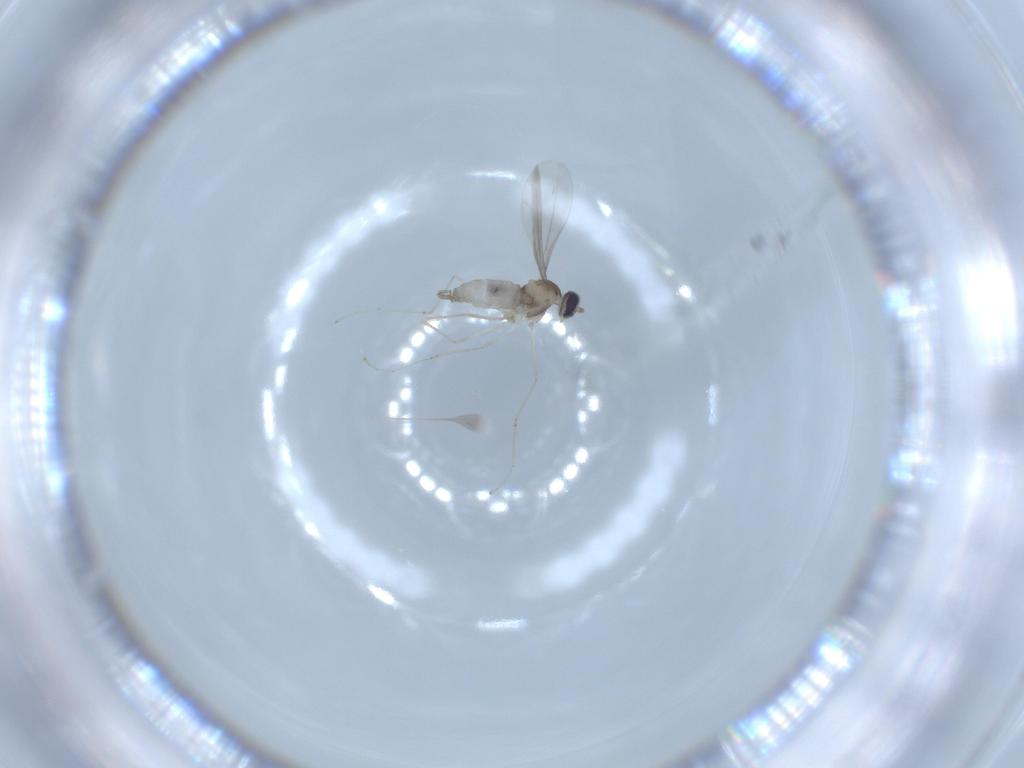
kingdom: Animalia
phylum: Arthropoda
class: Insecta
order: Diptera
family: Cecidomyiidae
